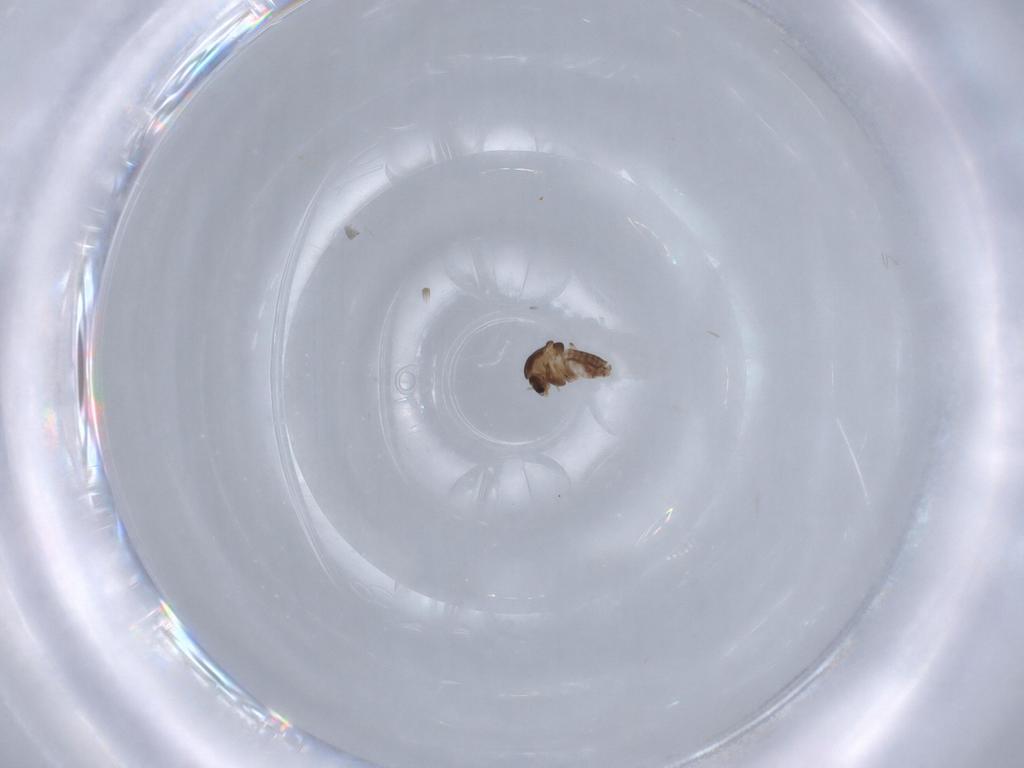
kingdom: Animalia
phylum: Arthropoda
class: Insecta
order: Diptera
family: Chironomidae
